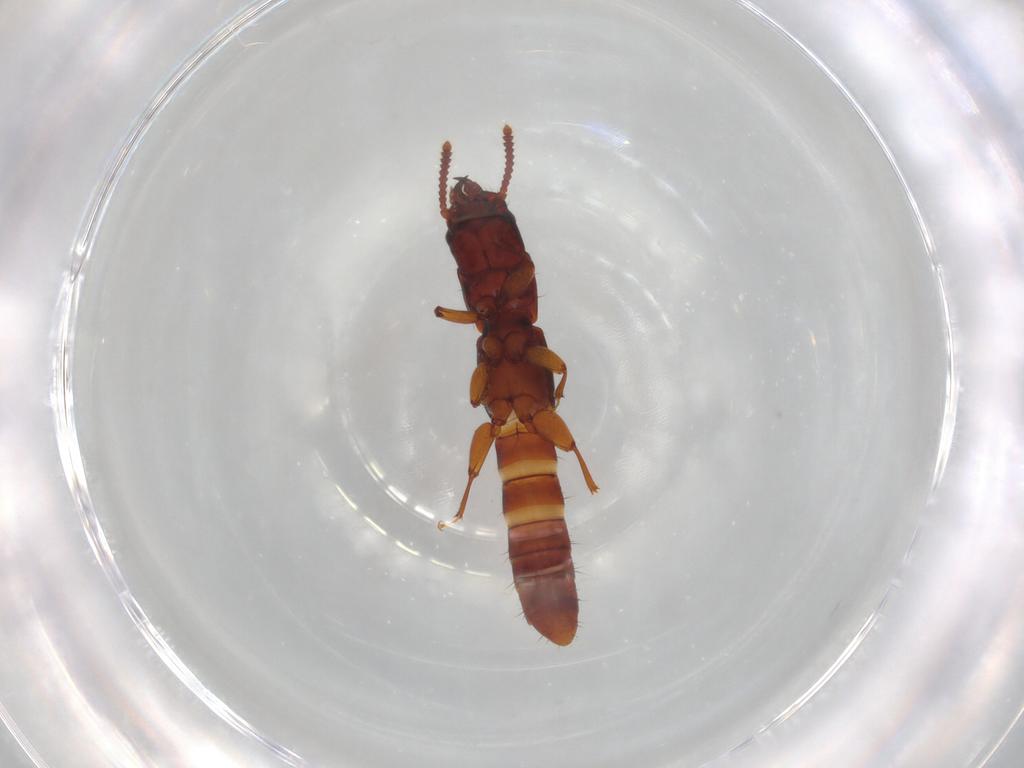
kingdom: Animalia
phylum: Arthropoda
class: Insecta
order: Coleoptera
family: Staphylinidae
